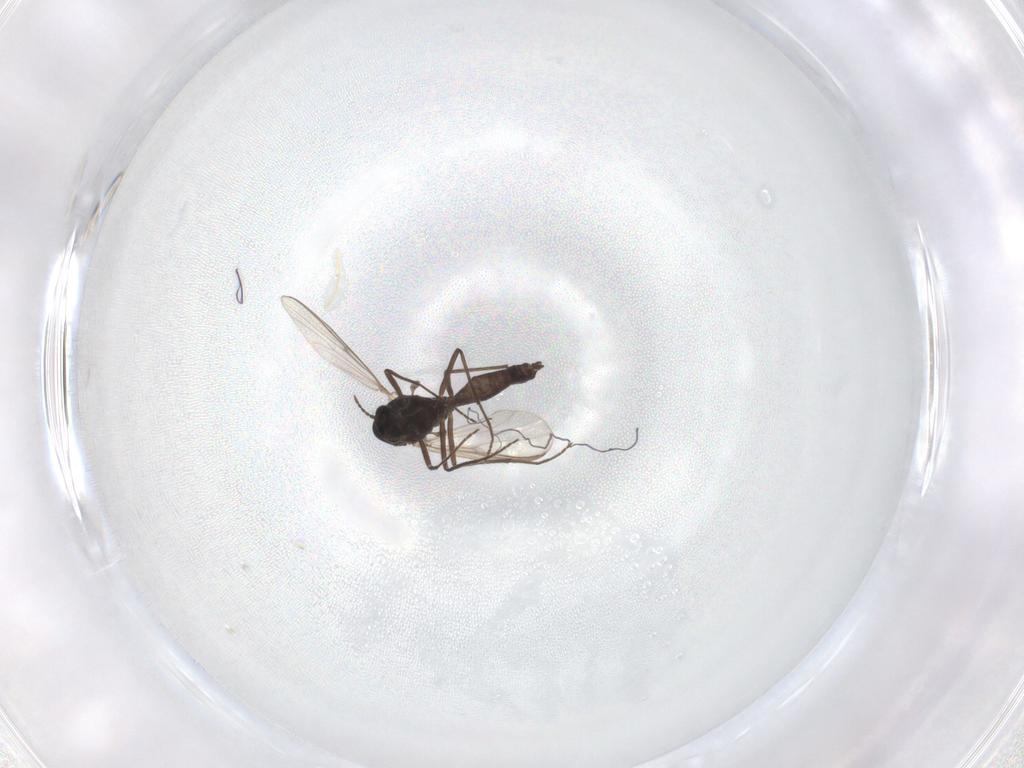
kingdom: Animalia
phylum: Arthropoda
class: Insecta
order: Diptera
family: Chironomidae
